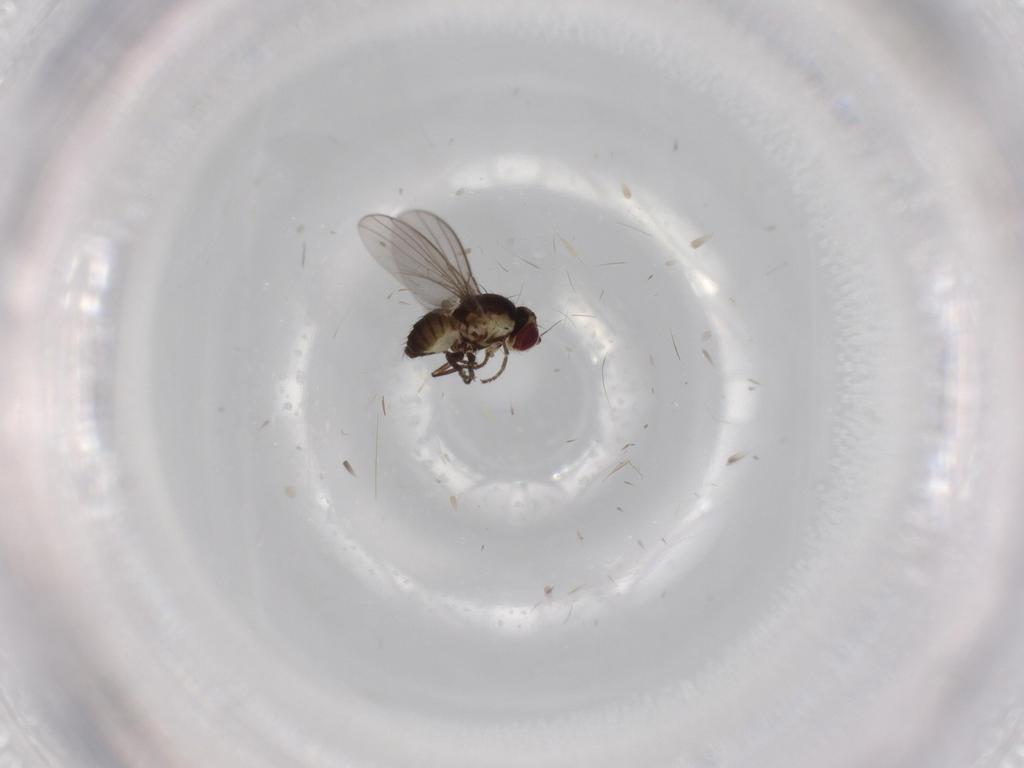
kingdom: Animalia
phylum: Arthropoda
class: Insecta
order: Diptera
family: Agromyzidae
